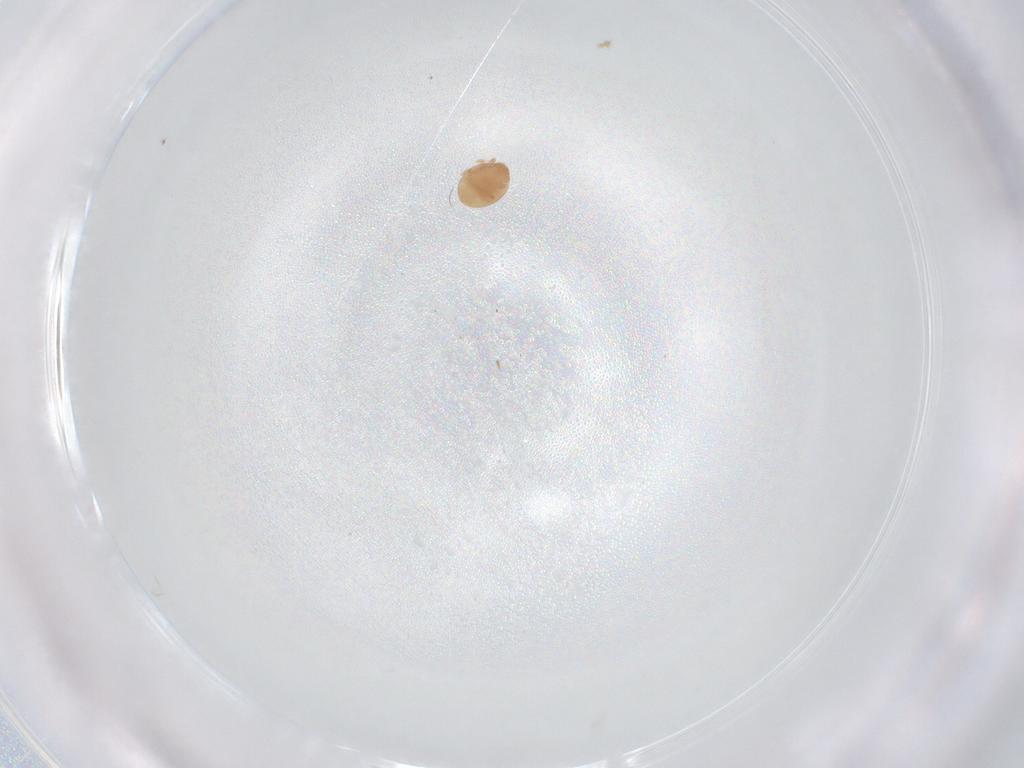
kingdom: Animalia
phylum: Arthropoda
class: Arachnida
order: Mesostigmata
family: Trematuridae
